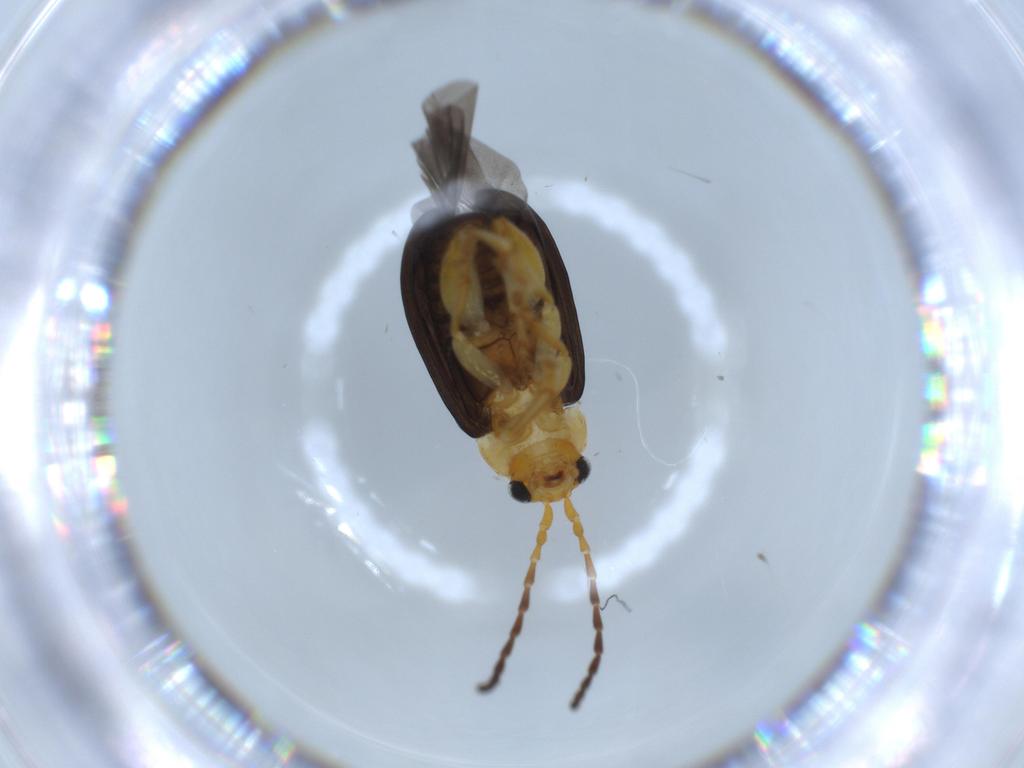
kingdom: Animalia
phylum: Arthropoda
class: Insecta
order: Coleoptera
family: Chrysomelidae
